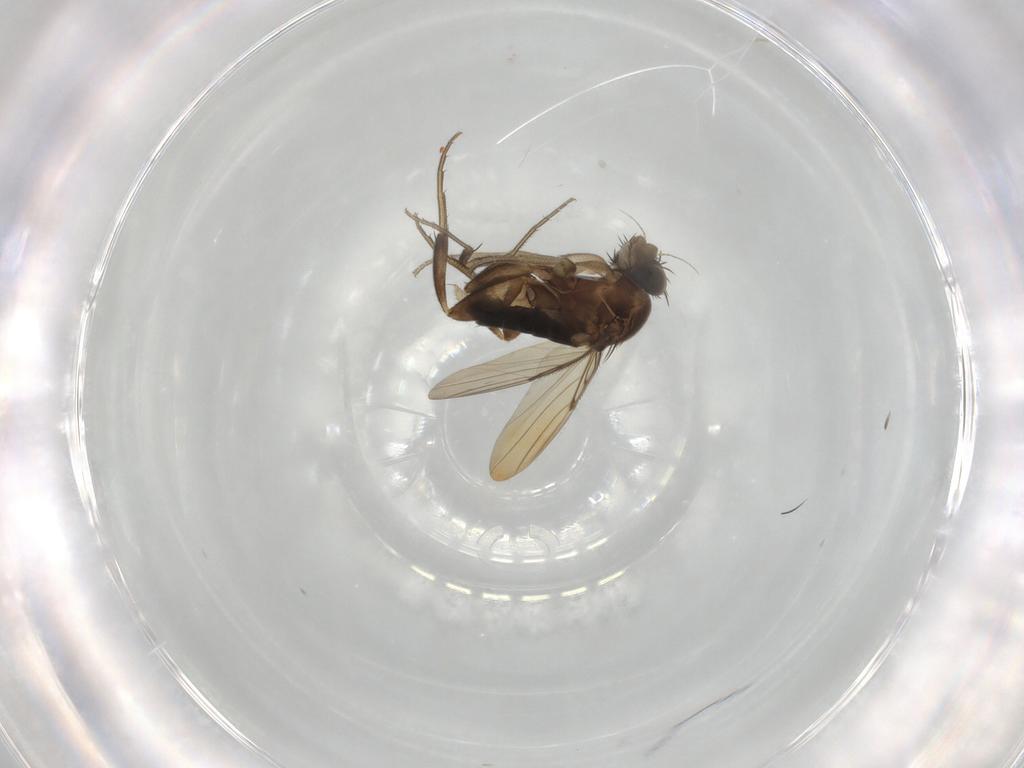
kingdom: Animalia
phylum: Arthropoda
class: Insecta
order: Diptera
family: Phoridae
